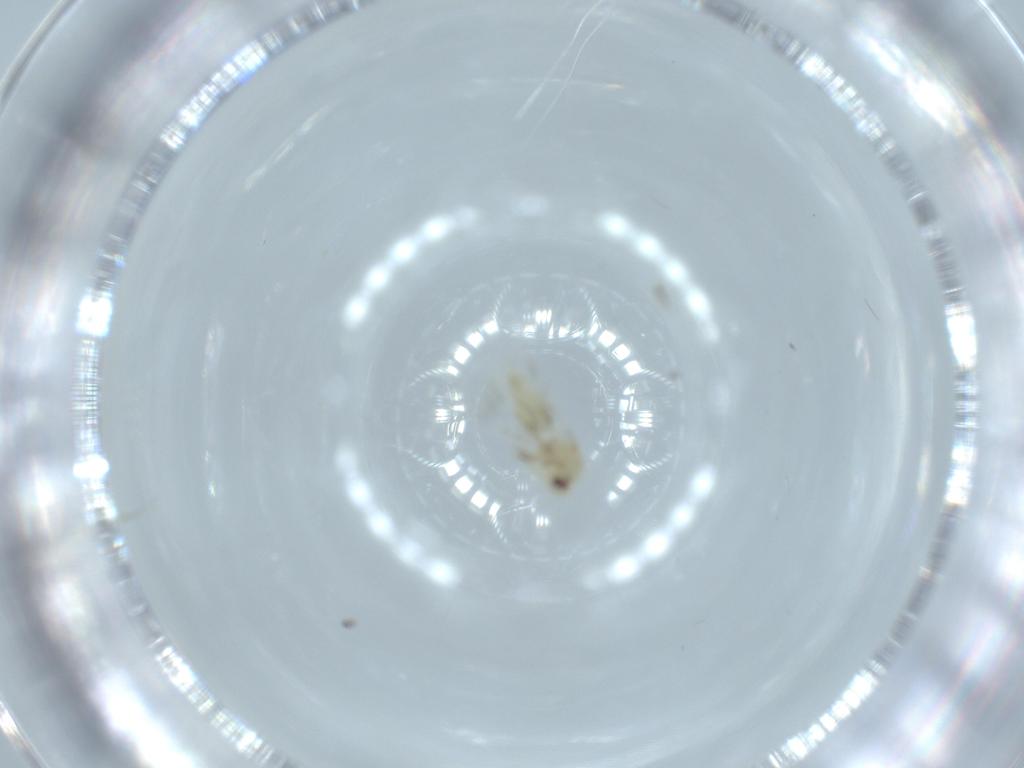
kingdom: Animalia
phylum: Arthropoda
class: Insecta
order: Hemiptera
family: Aleyrodidae
